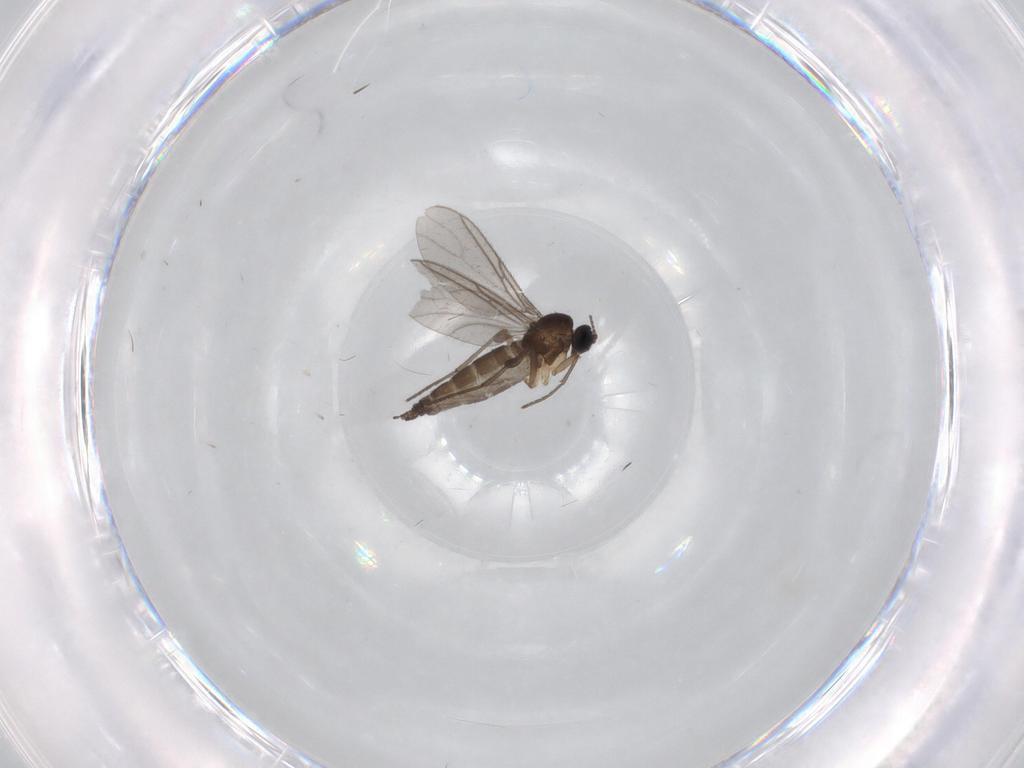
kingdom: Animalia
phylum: Arthropoda
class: Insecta
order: Diptera
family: Sciaridae
